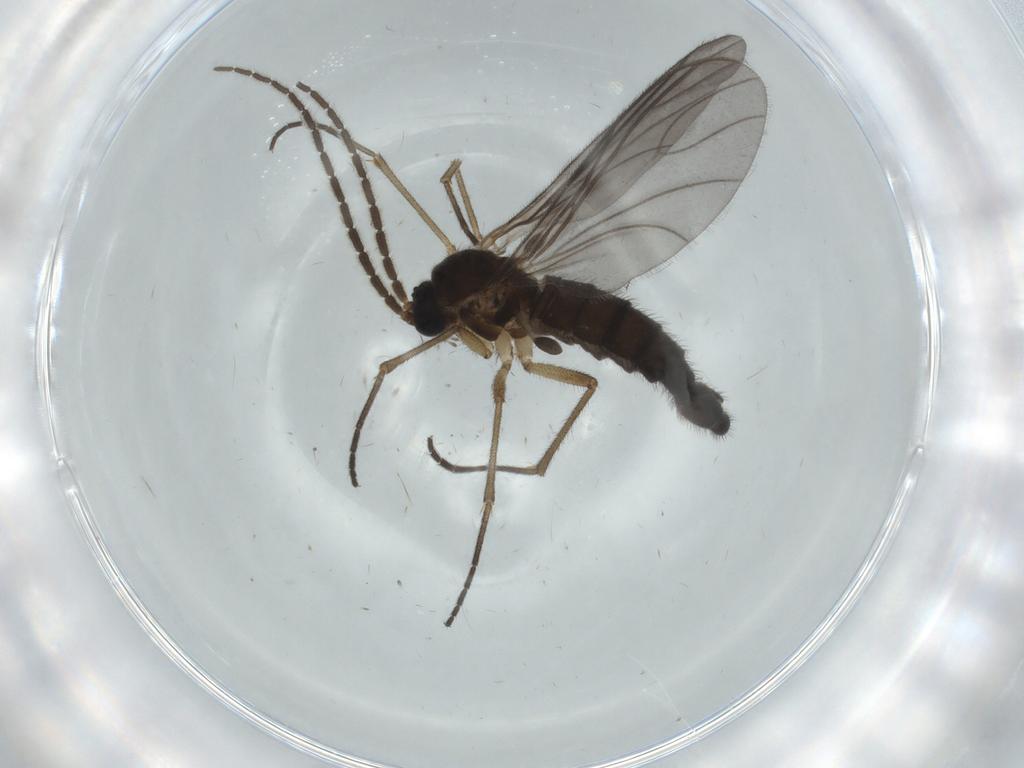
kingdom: Animalia
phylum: Arthropoda
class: Insecta
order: Diptera
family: Sciaridae
